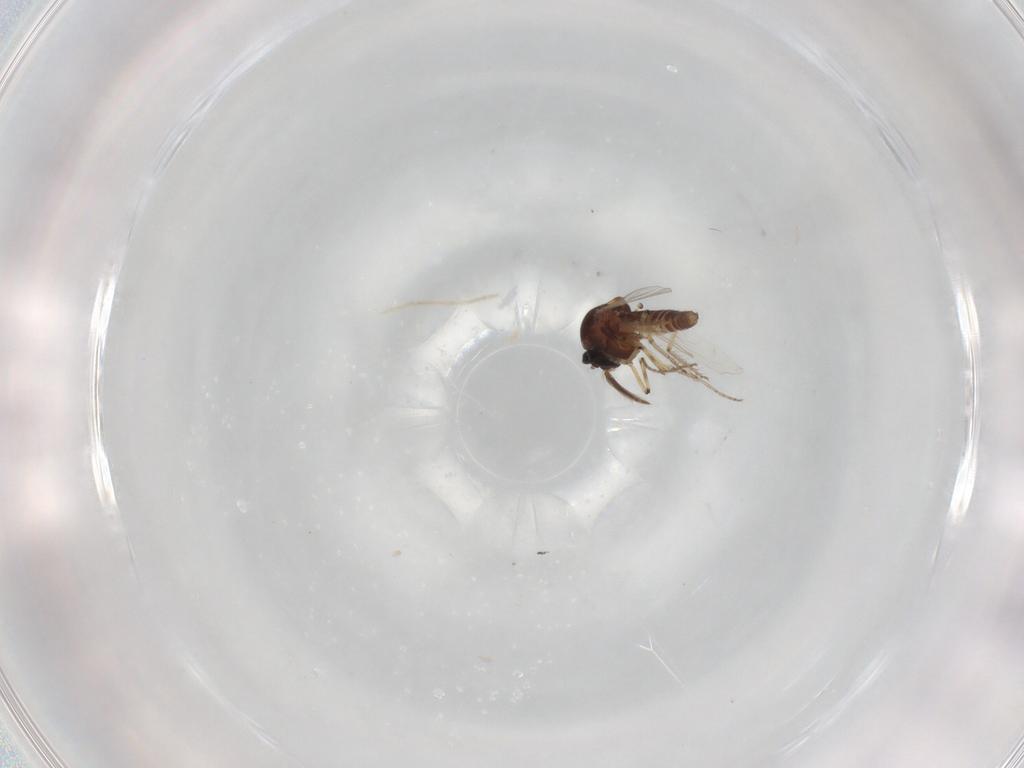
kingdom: Animalia
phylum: Arthropoda
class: Insecta
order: Diptera
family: Ceratopogonidae
